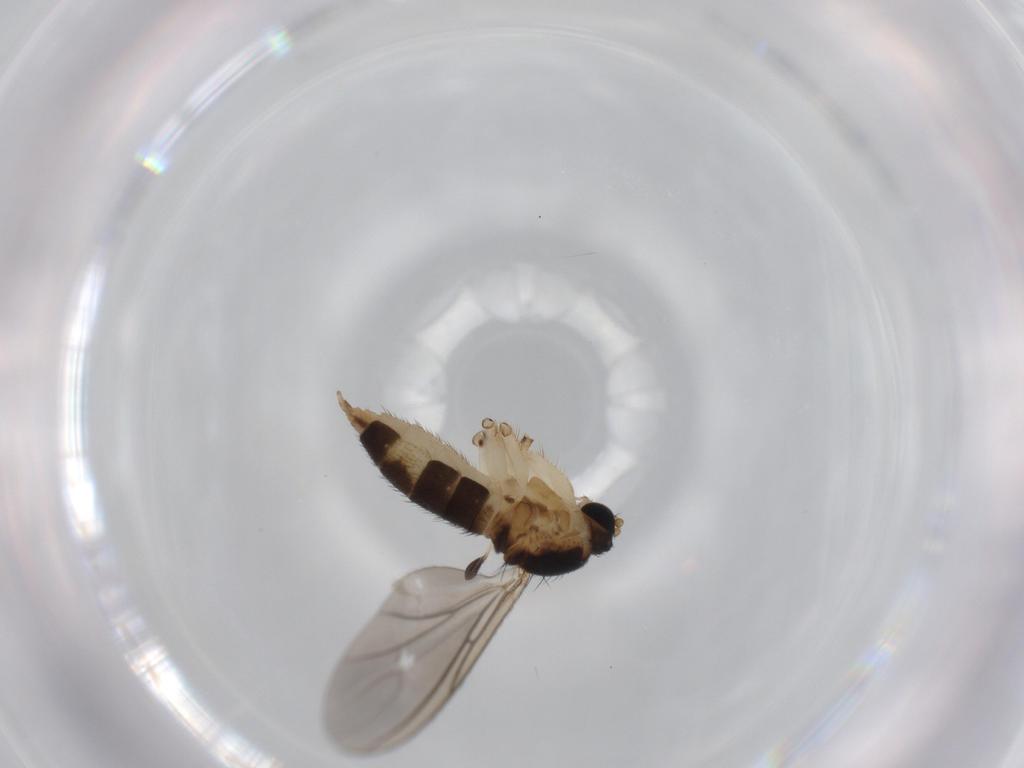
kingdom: Animalia
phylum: Arthropoda
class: Insecta
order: Diptera
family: Sciaridae
